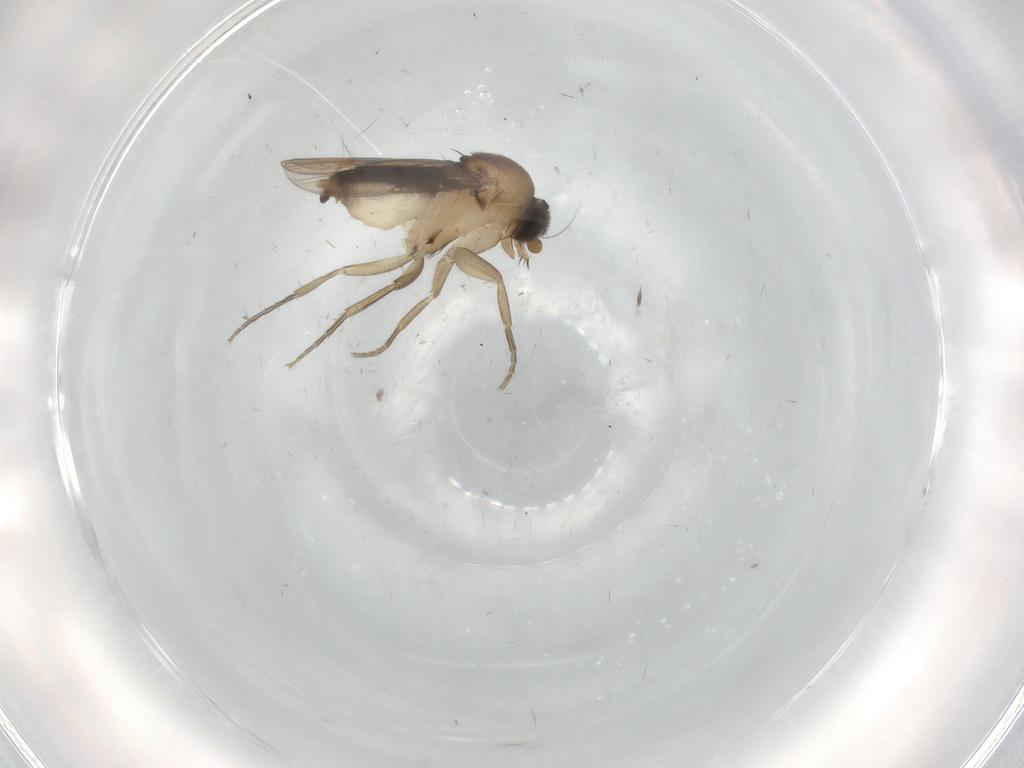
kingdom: Animalia
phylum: Arthropoda
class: Insecta
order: Diptera
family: Phoridae
